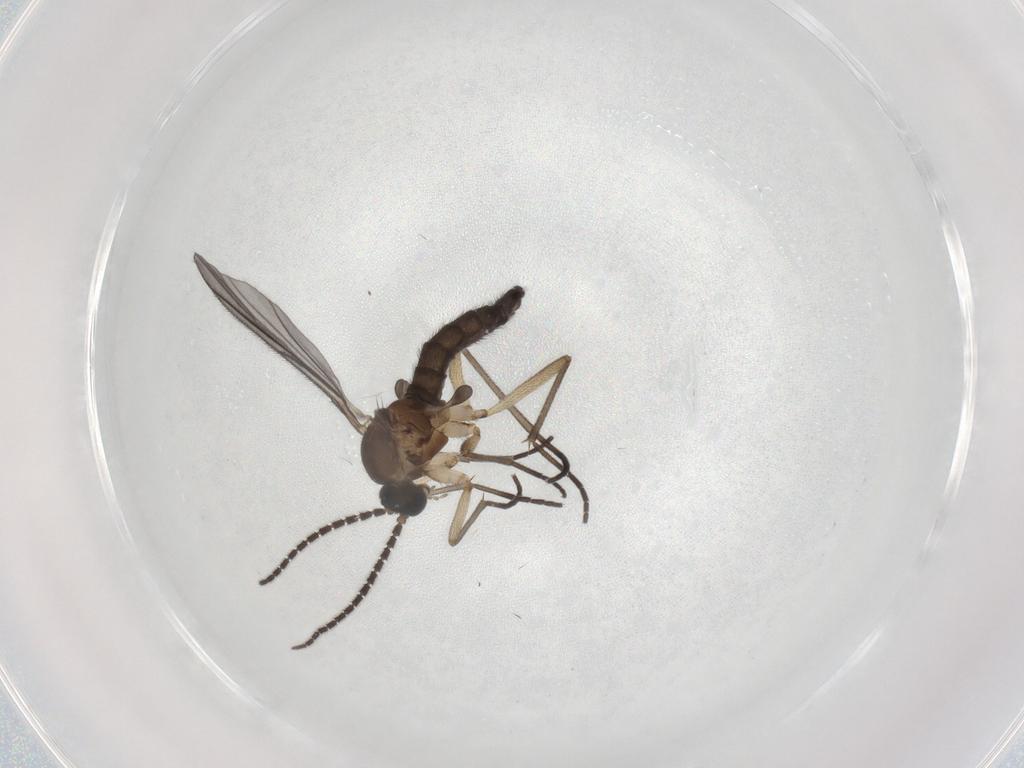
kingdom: Animalia
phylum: Arthropoda
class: Insecta
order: Diptera
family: Sciaridae
